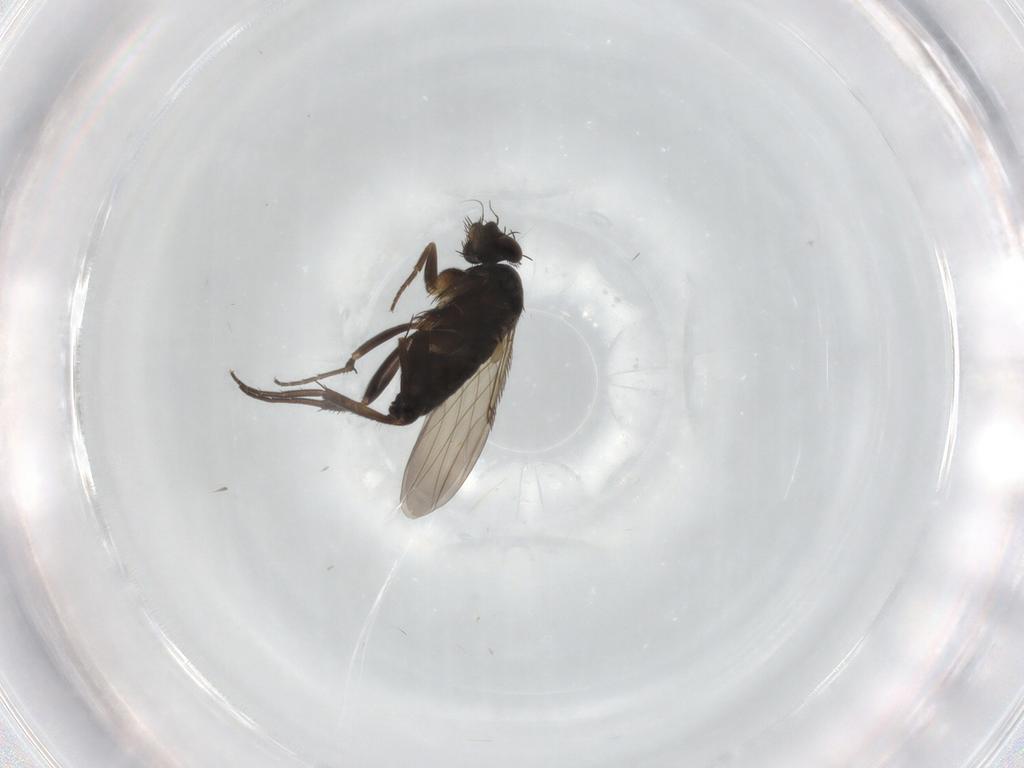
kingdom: Animalia
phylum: Arthropoda
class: Insecta
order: Diptera
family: Phoridae
